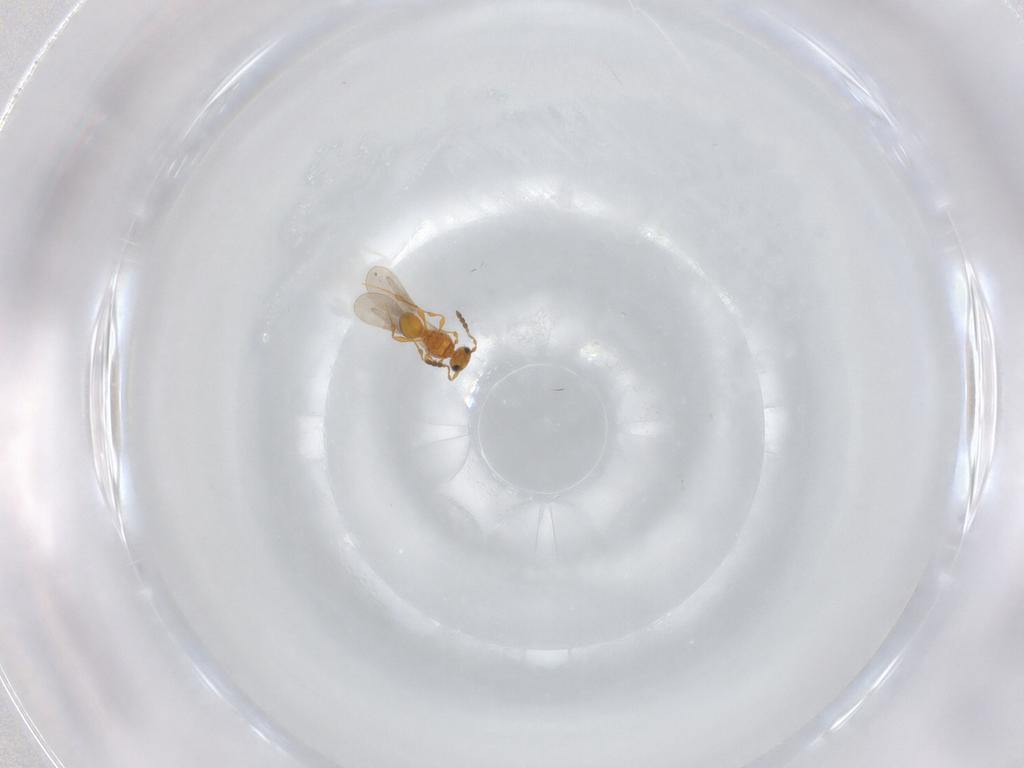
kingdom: Animalia
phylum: Arthropoda
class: Insecta
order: Hymenoptera
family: Platygastridae
